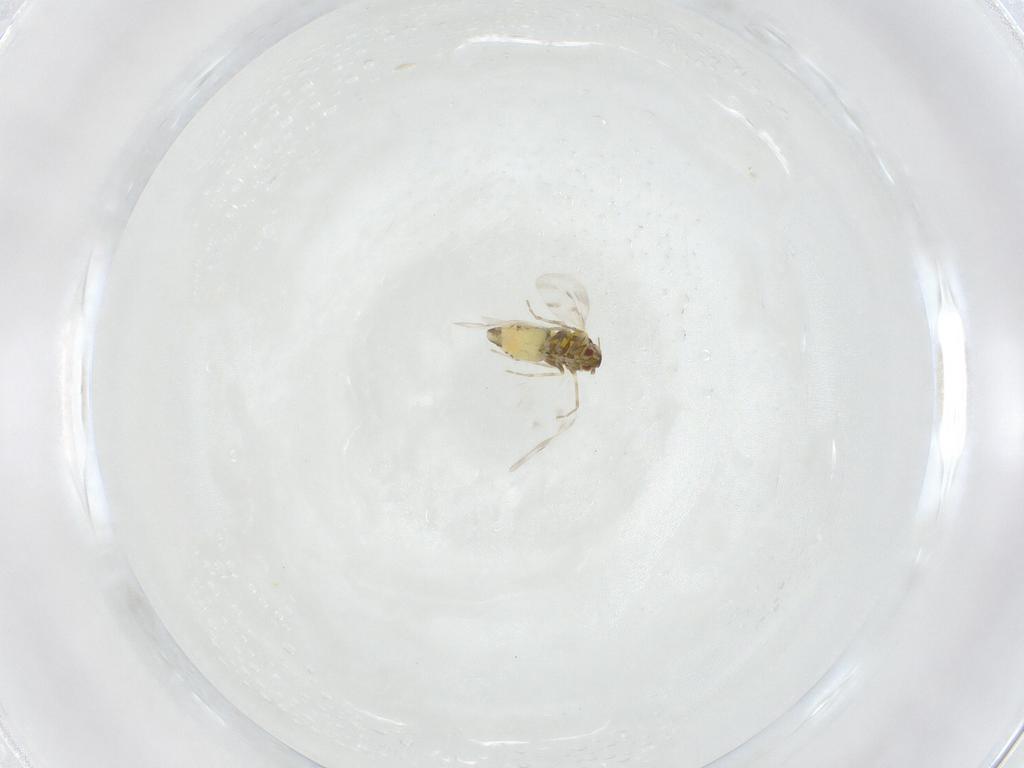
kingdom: Animalia
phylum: Arthropoda
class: Insecta
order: Hemiptera
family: Aleyrodidae
